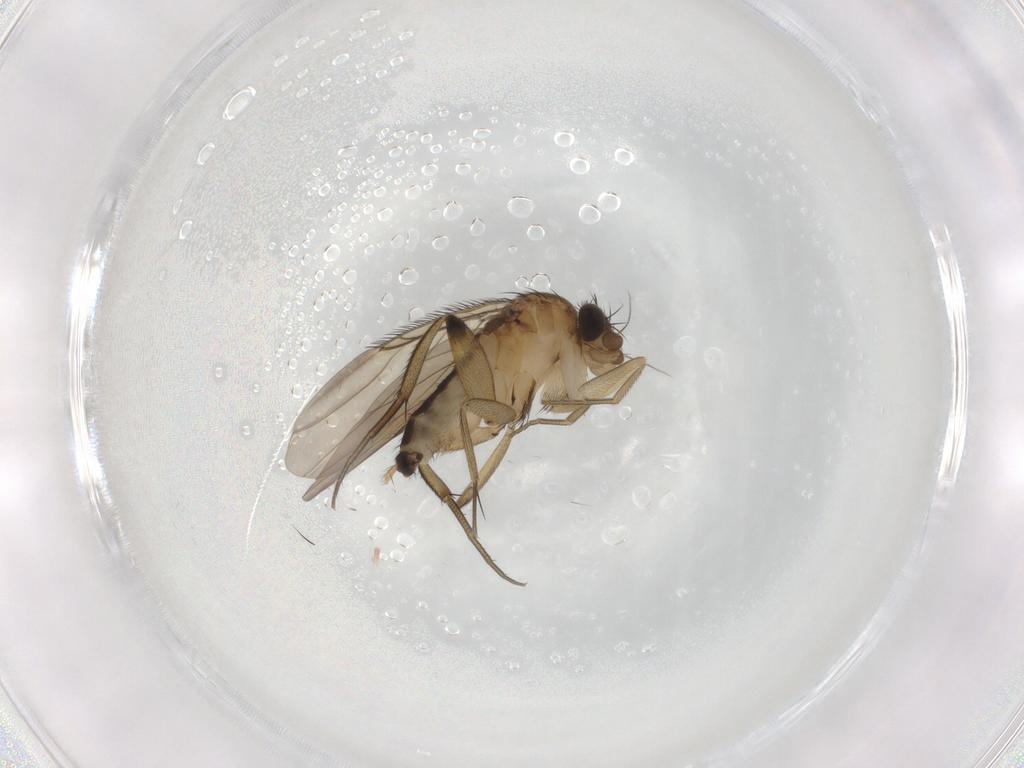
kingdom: Animalia
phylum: Arthropoda
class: Insecta
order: Diptera
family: Phoridae
